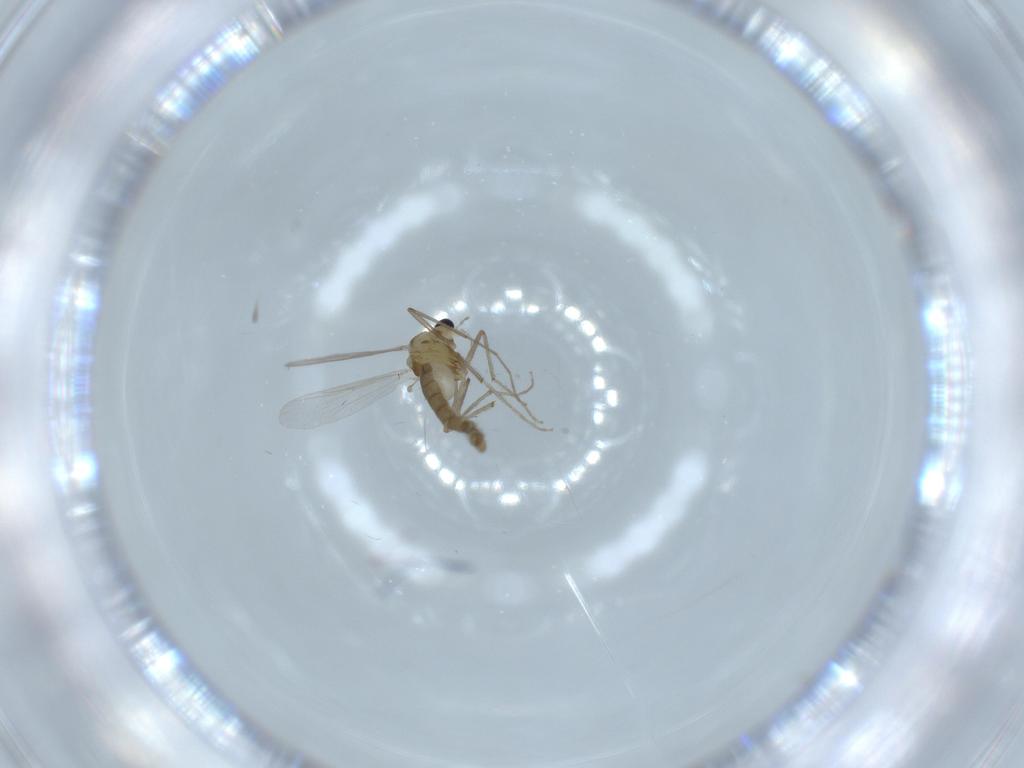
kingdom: Animalia
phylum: Arthropoda
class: Insecta
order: Diptera
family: Chironomidae
